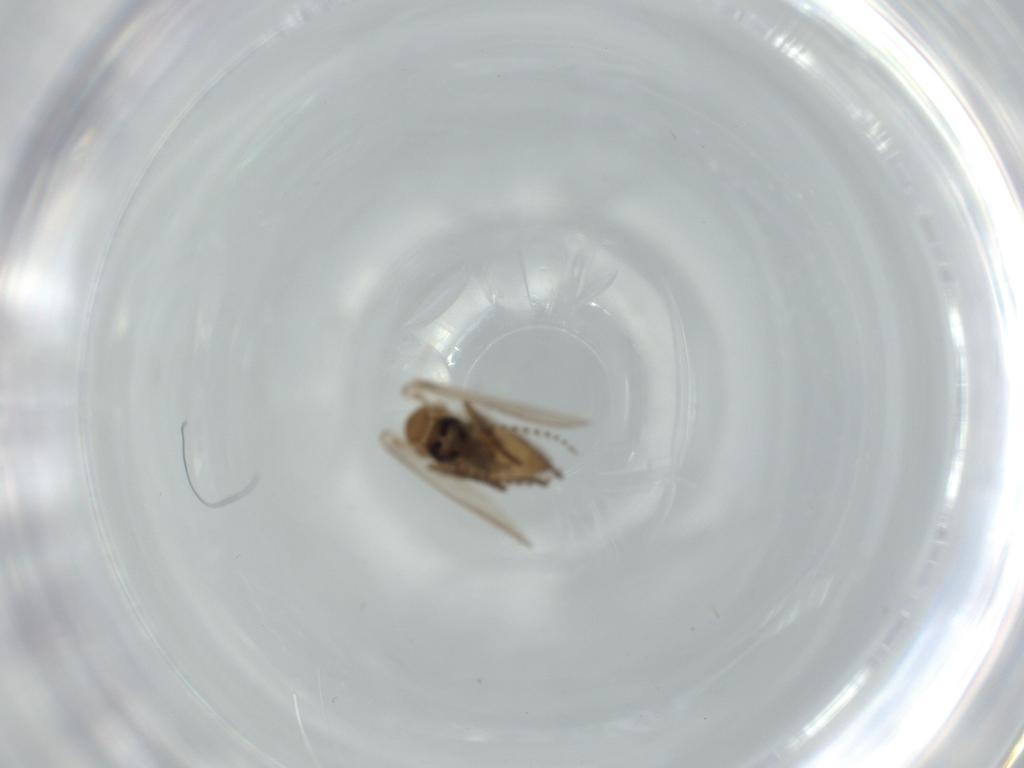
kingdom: Animalia
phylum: Arthropoda
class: Insecta
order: Diptera
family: Psychodidae
